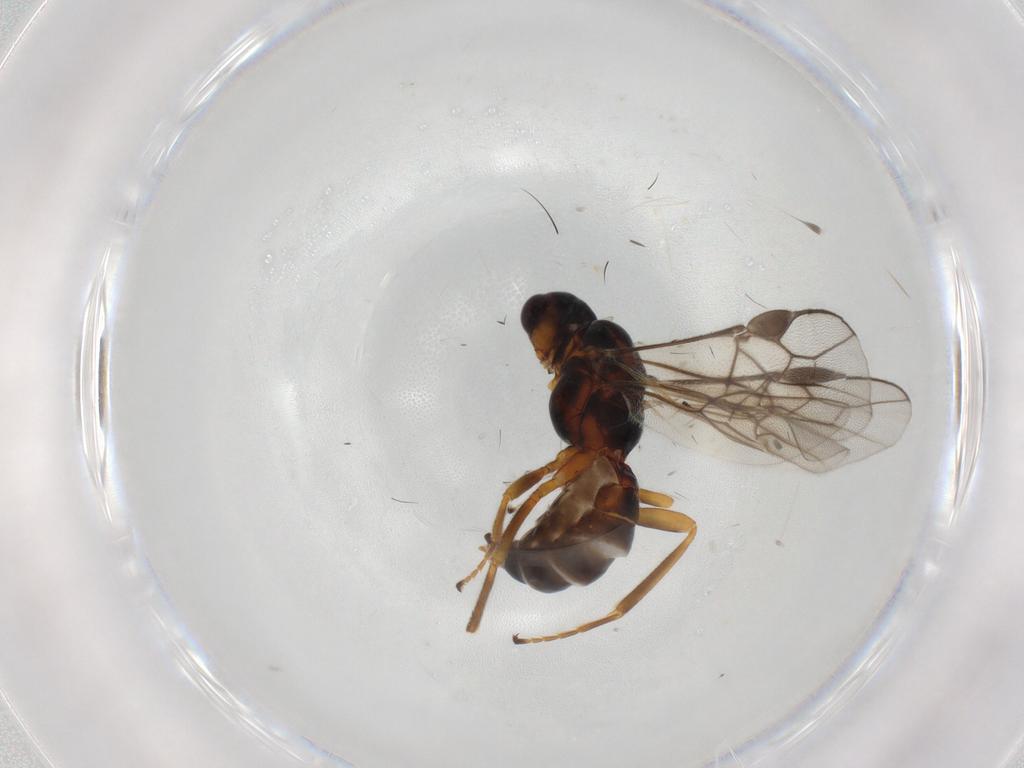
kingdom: Animalia
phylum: Arthropoda
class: Insecta
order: Hymenoptera
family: Braconidae
